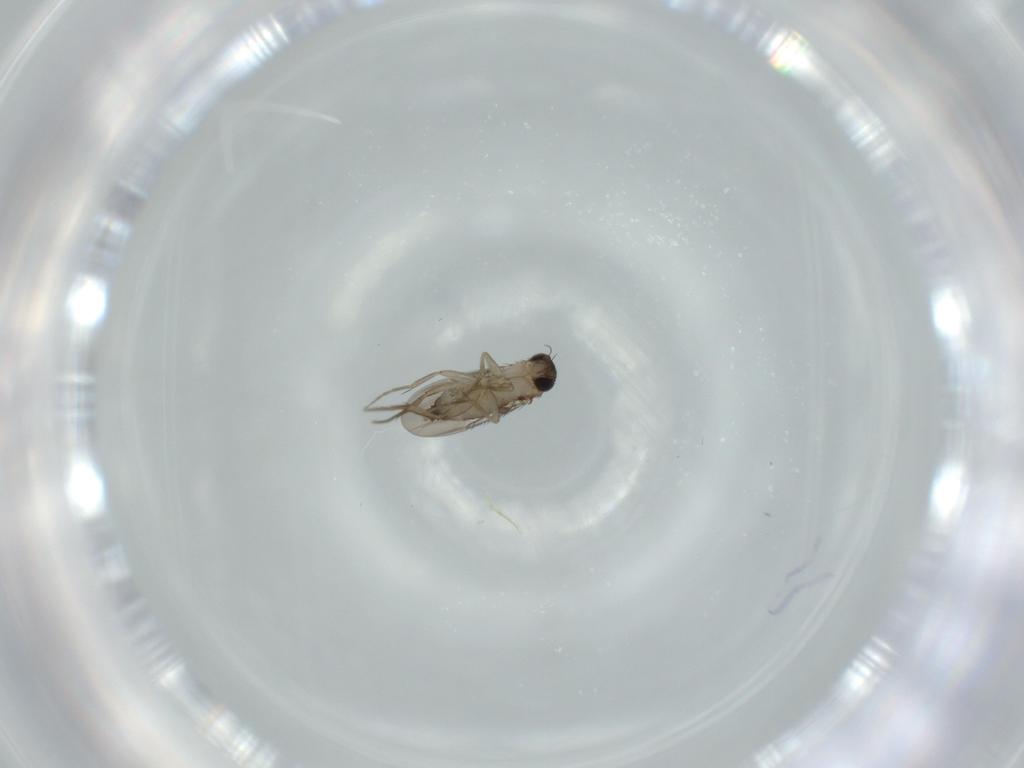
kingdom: Animalia
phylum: Arthropoda
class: Insecta
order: Diptera
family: Phoridae
